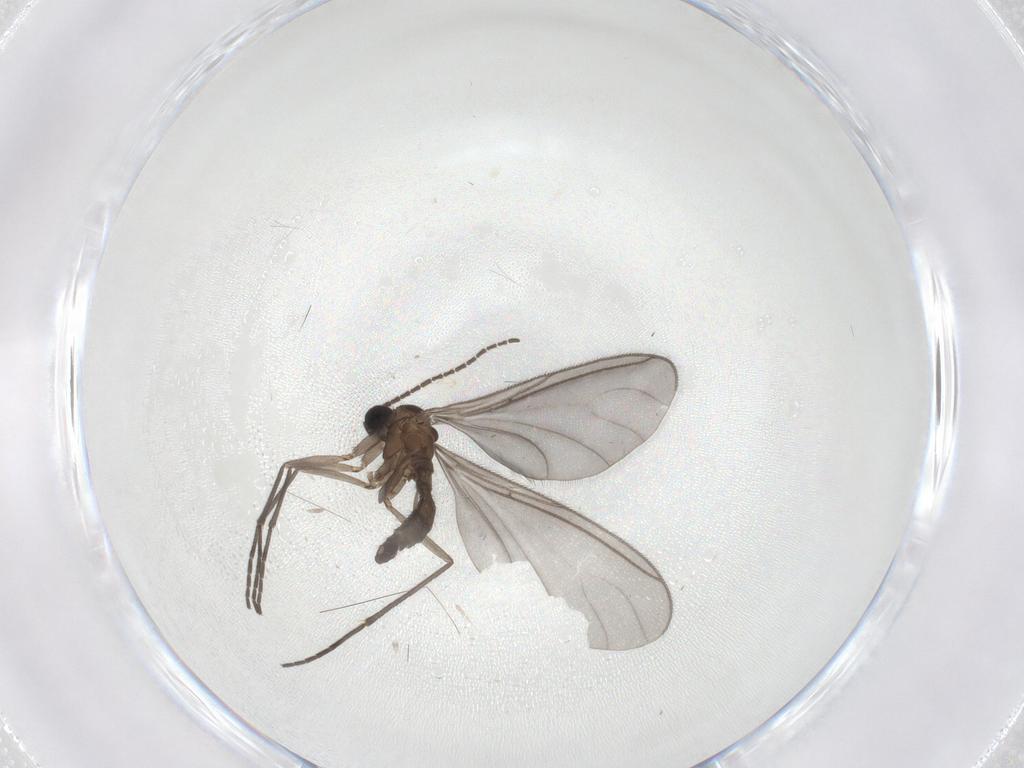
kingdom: Animalia
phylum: Arthropoda
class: Insecta
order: Diptera
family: Sciaridae
